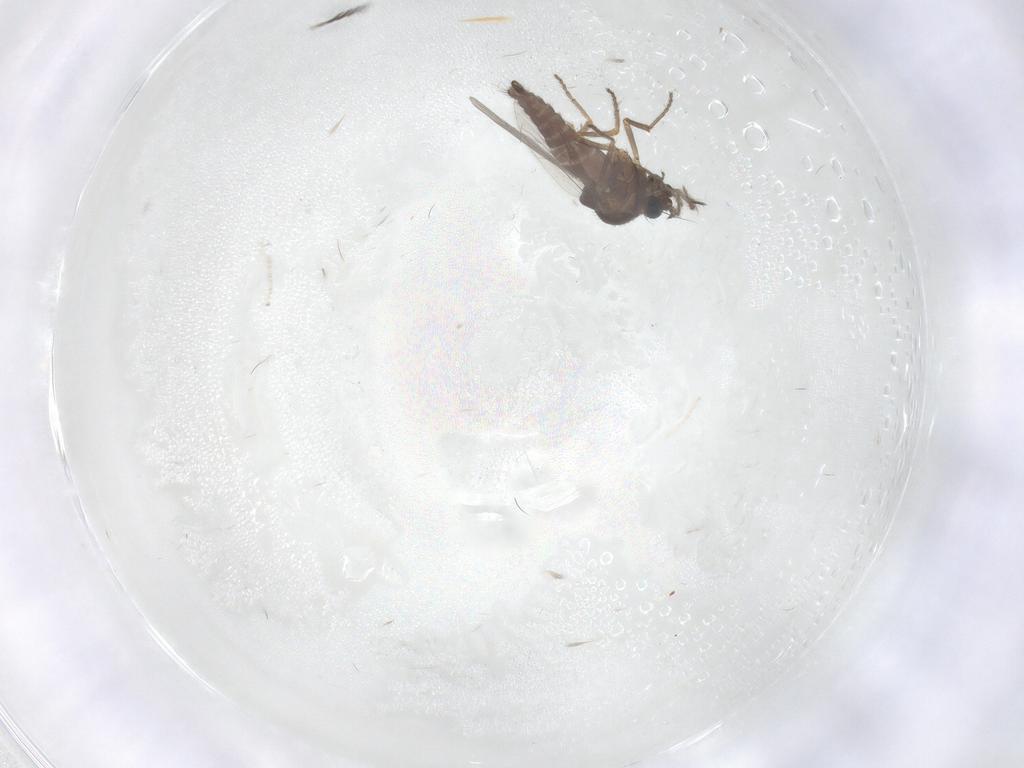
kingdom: Animalia
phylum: Arthropoda
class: Insecta
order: Diptera
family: Ceratopogonidae
